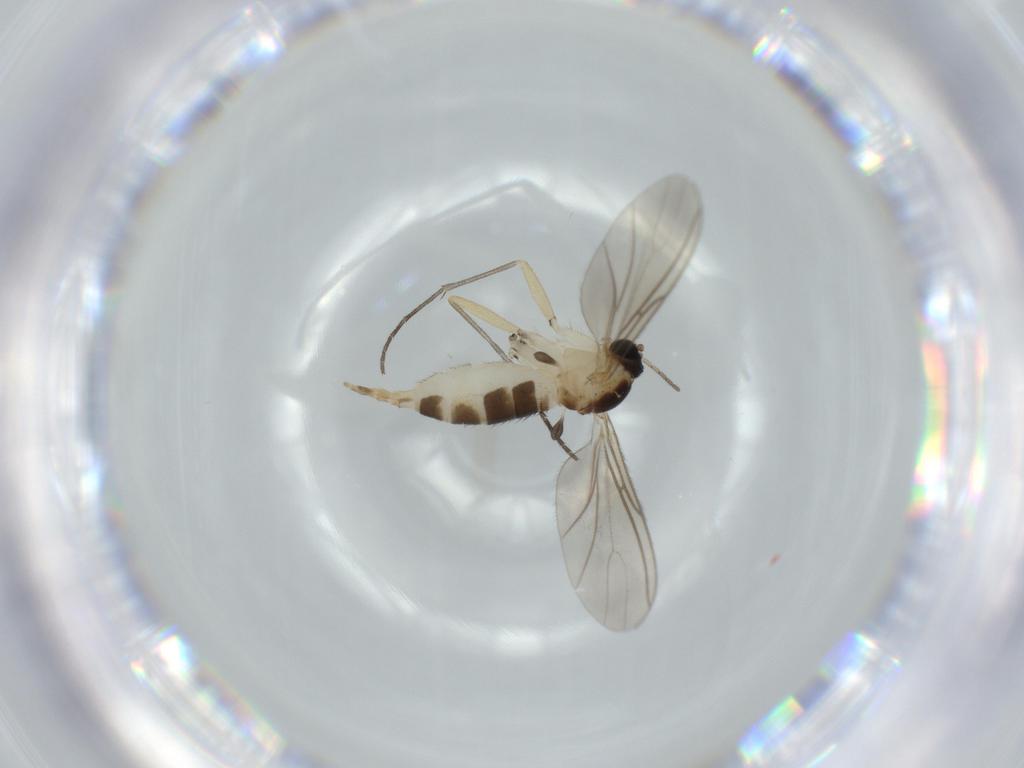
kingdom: Animalia
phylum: Arthropoda
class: Insecta
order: Diptera
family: Sciaridae
